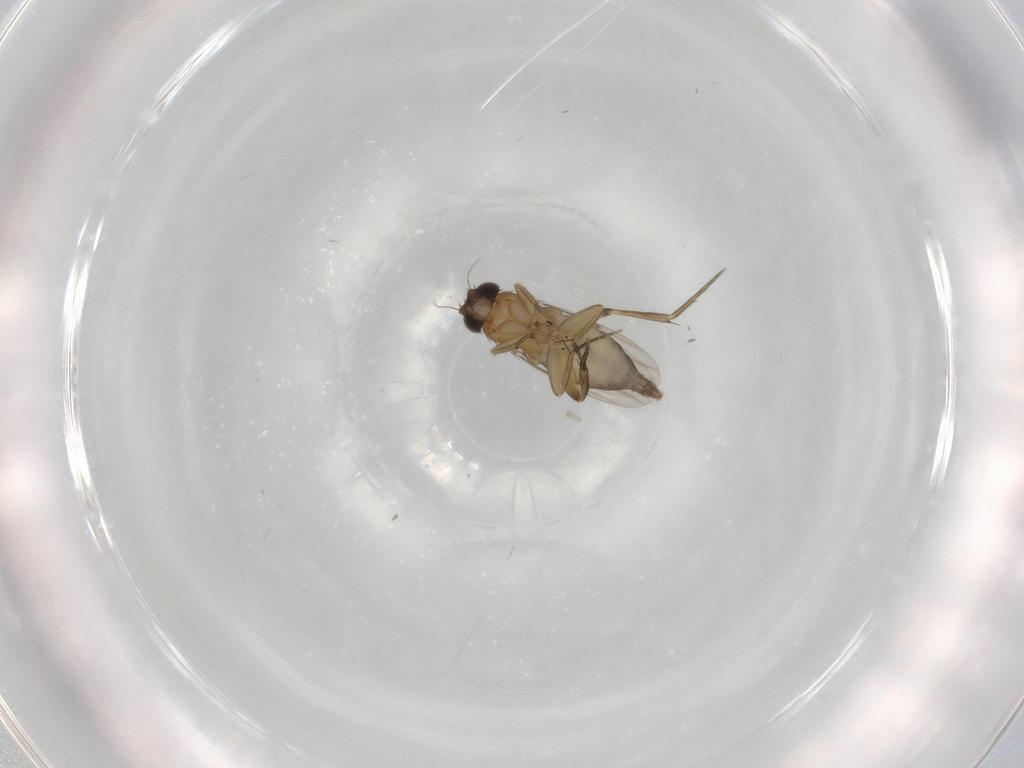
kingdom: Animalia
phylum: Arthropoda
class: Insecta
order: Diptera
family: Phoridae
